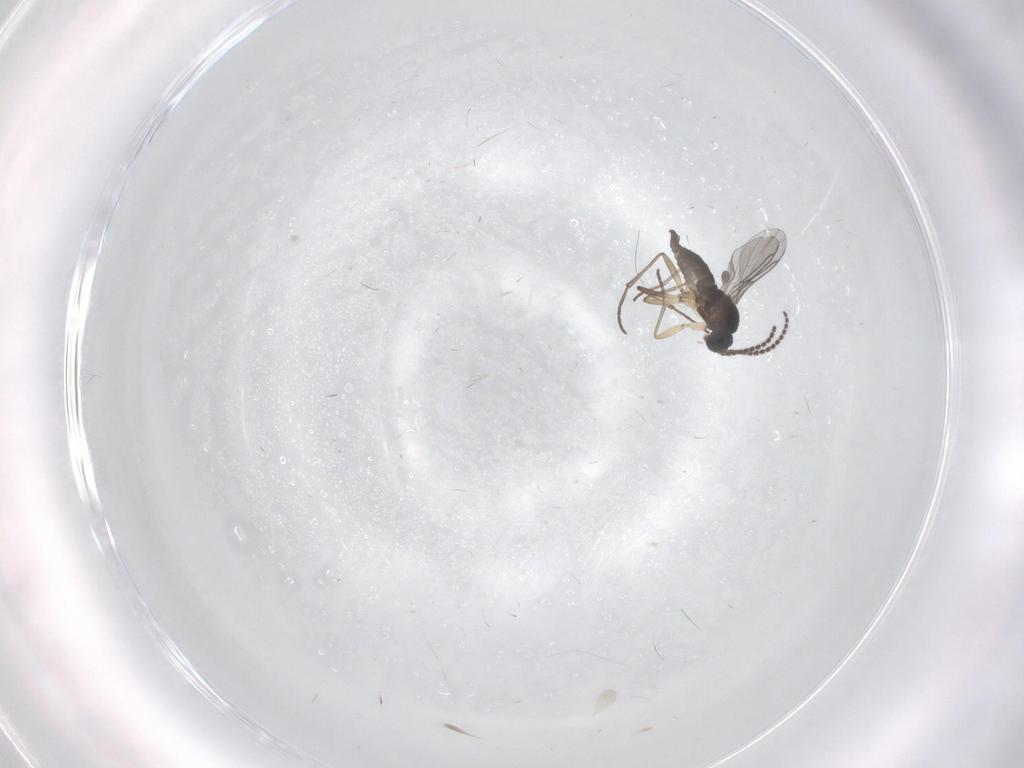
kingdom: Animalia
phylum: Arthropoda
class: Insecta
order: Diptera
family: Sciaridae
